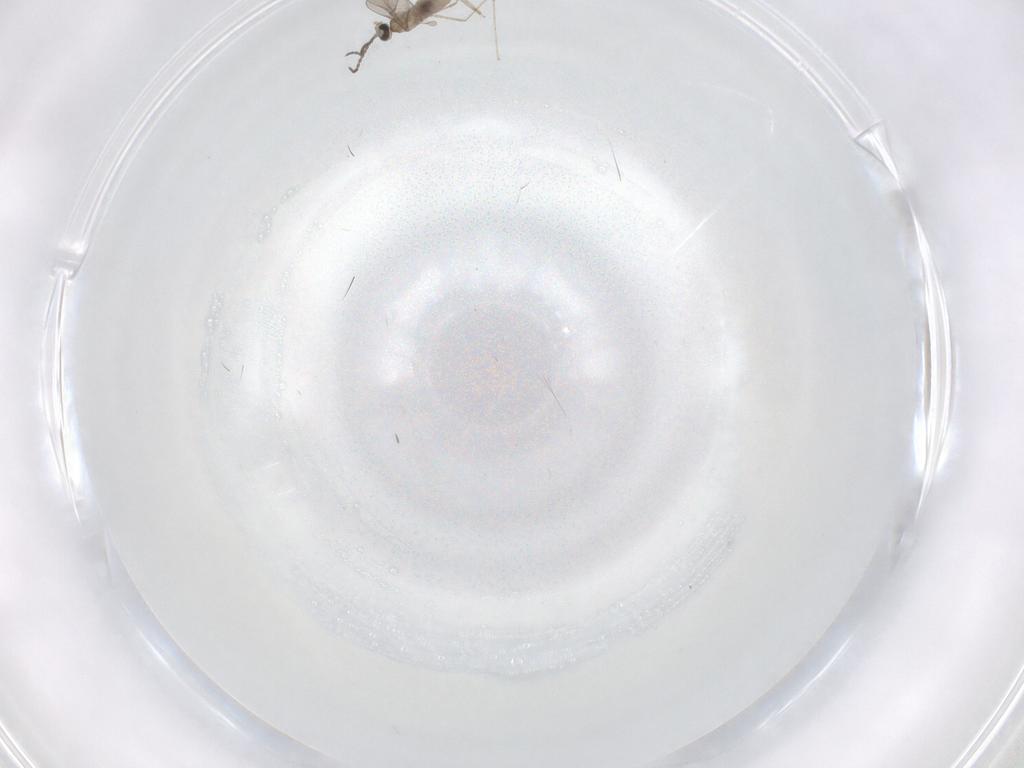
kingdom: Animalia
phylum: Arthropoda
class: Insecta
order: Diptera
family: Cecidomyiidae
